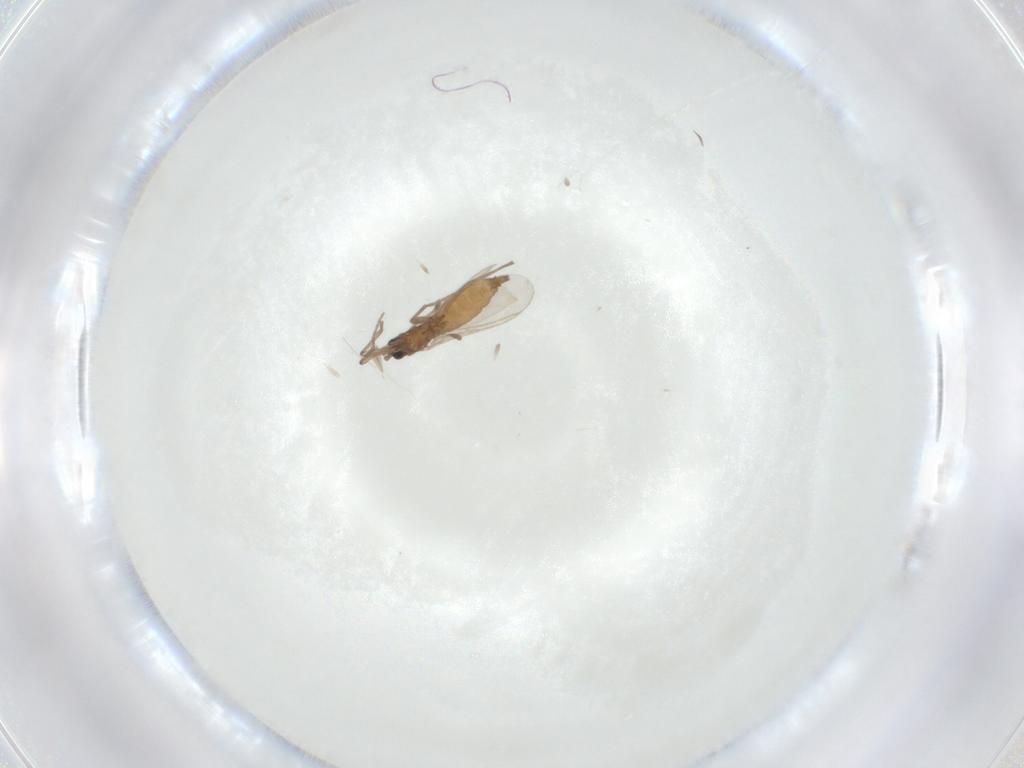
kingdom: Animalia
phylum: Arthropoda
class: Insecta
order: Diptera
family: Sciaridae
